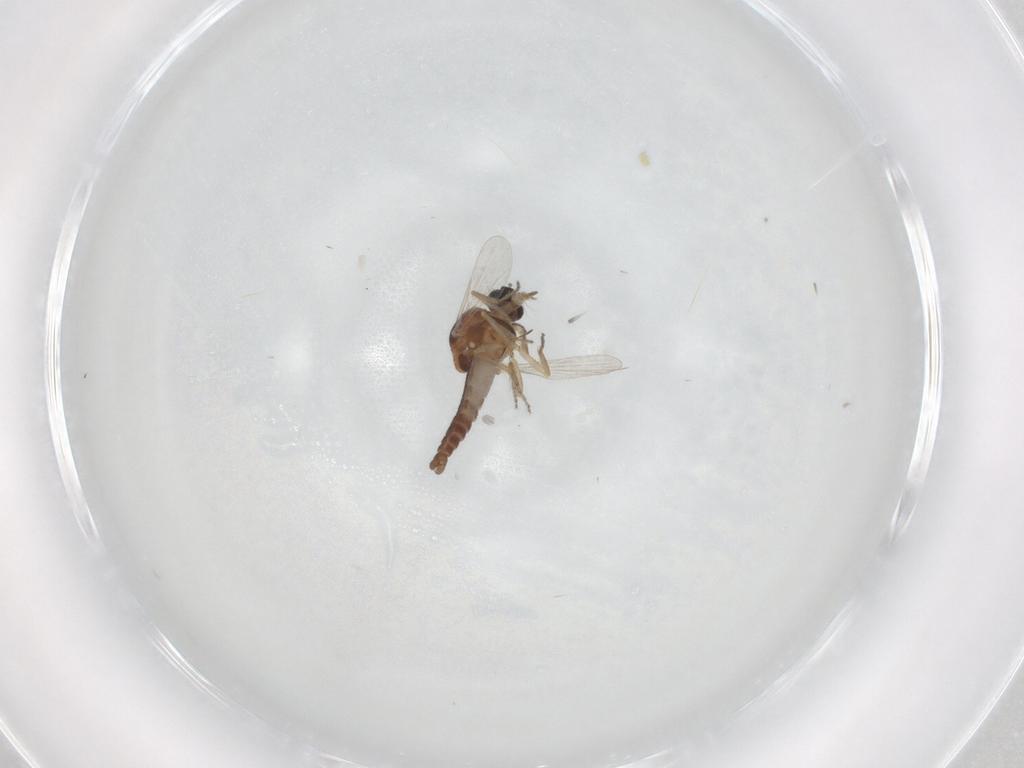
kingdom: Animalia
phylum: Arthropoda
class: Insecta
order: Diptera
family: Ceratopogonidae
